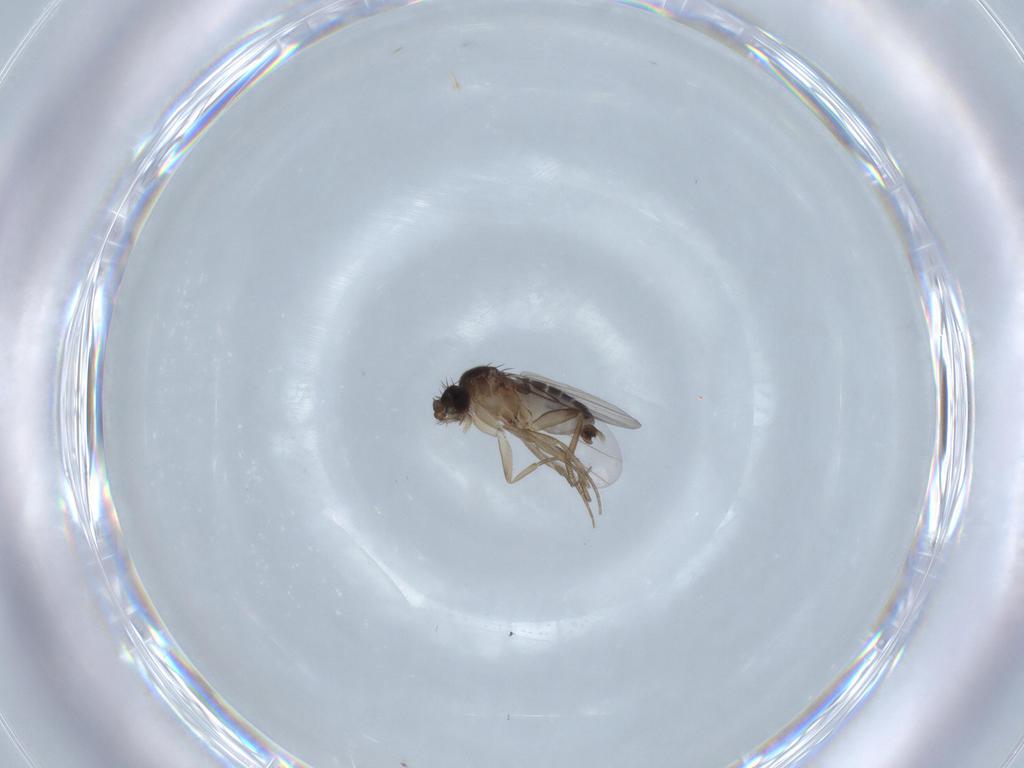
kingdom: Animalia
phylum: Arthropoda
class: Insecta
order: Diptera
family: Phoridae
